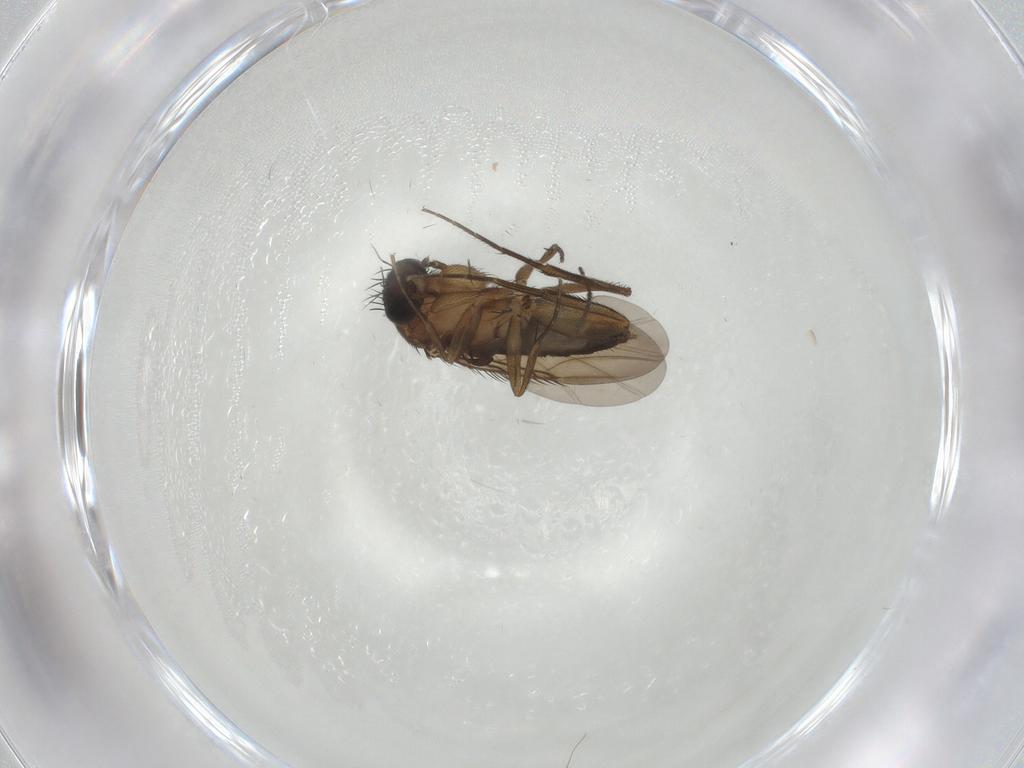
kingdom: Animalia
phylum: Arthropoda
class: Insecta
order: Diptera
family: Phoridae
